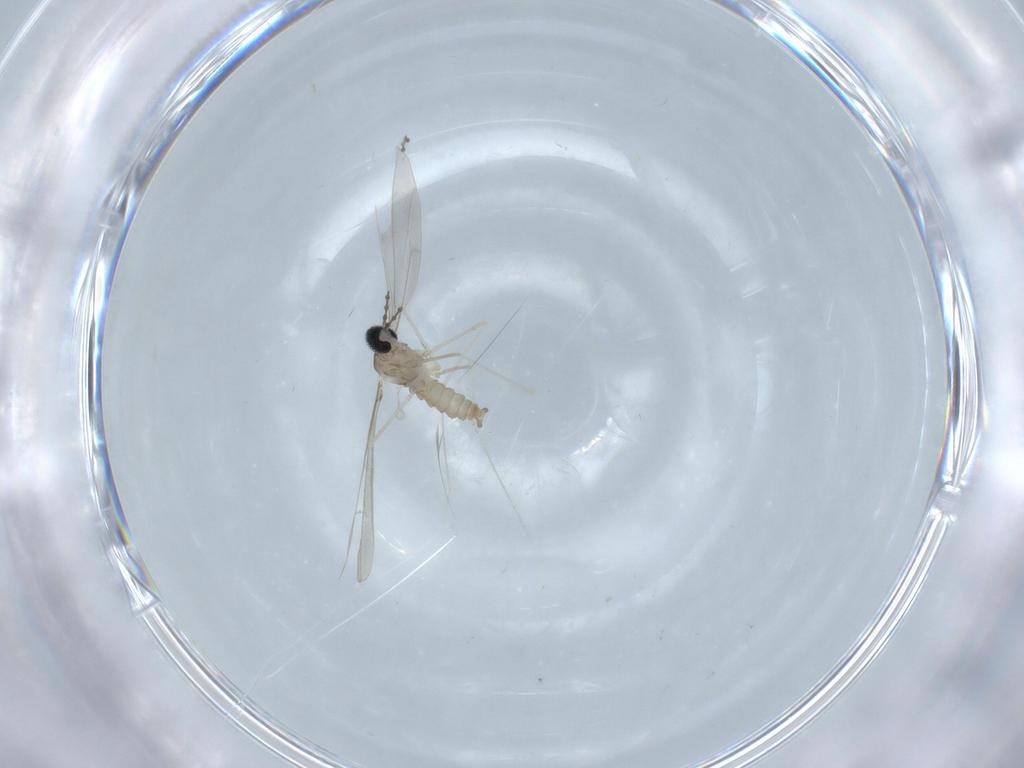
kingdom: Animalia
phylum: Arthropoda
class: Insecta
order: Diptera
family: Cecidomyiidae
